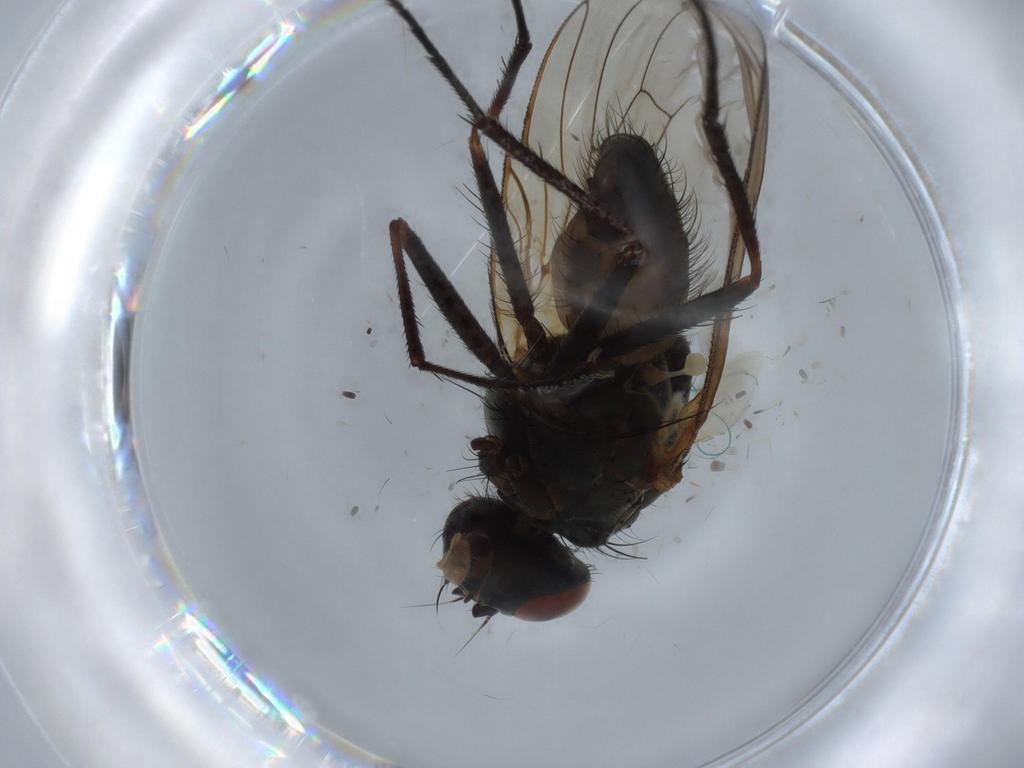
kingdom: Animalia
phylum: Arthropoda
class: Insecta
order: Diptera
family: Anthomyiidae
